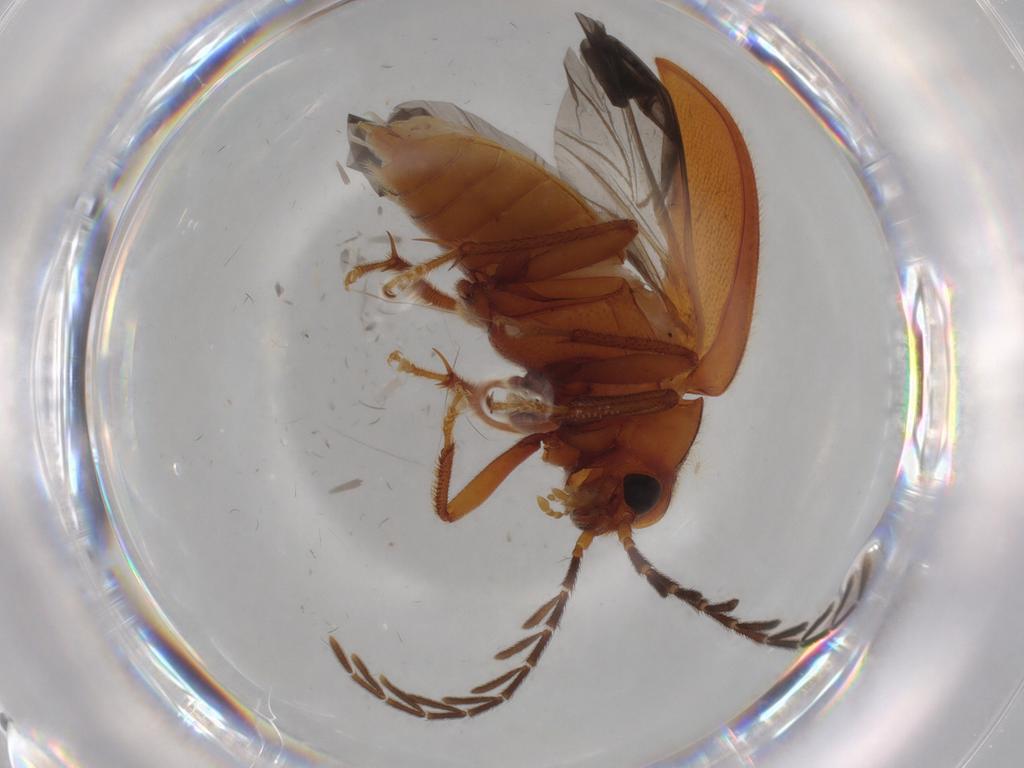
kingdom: Animalia
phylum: Arthropoda
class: Insecta
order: Coleoptera
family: Ptilodactylidae
